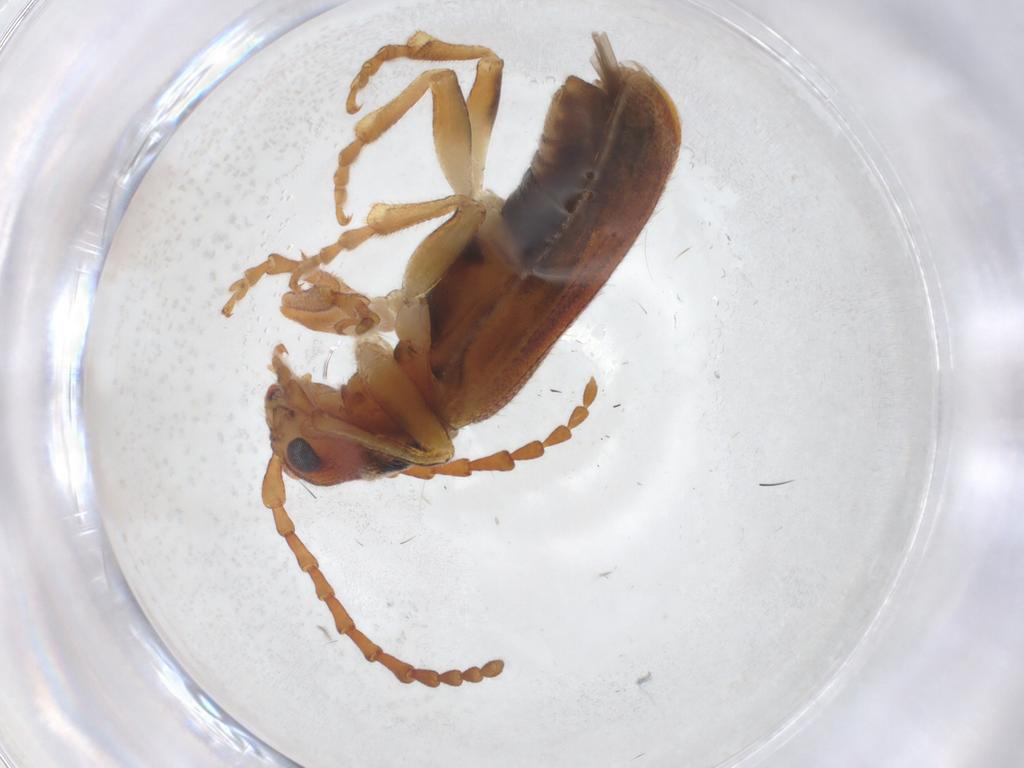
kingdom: Animalia
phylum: Arthropoda
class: Insecta
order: Coleoptera
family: Chrysomelidae
